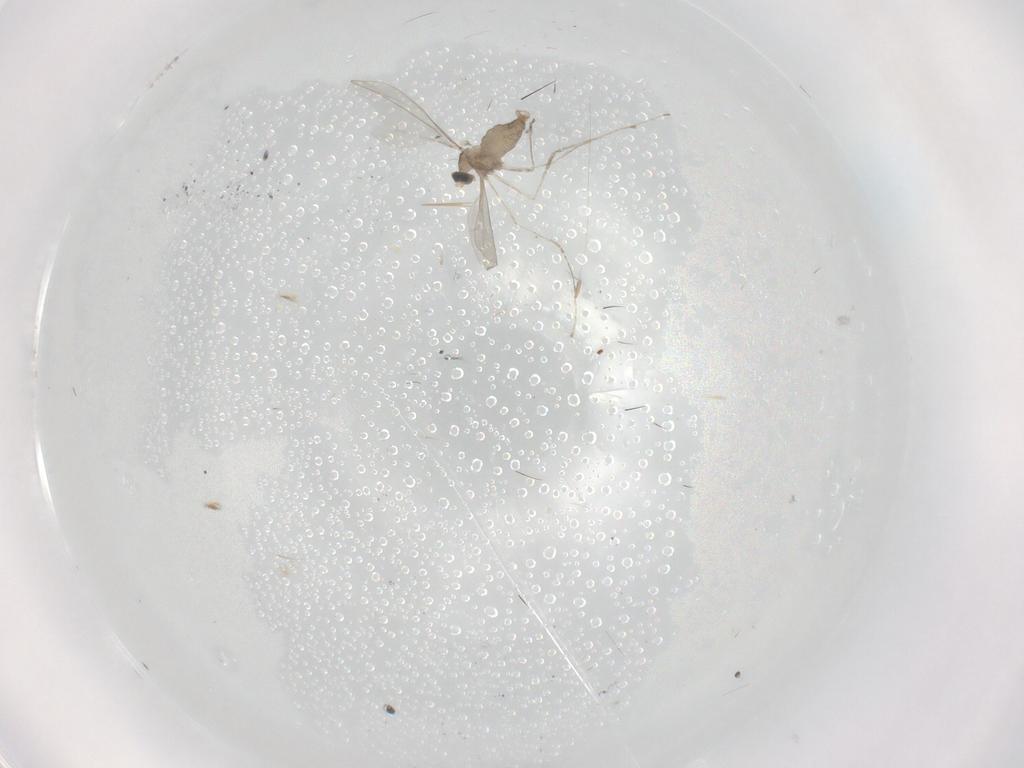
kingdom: Animalia
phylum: Arthropoda
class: Insecta
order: Diptera
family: Cecidomyiidae
